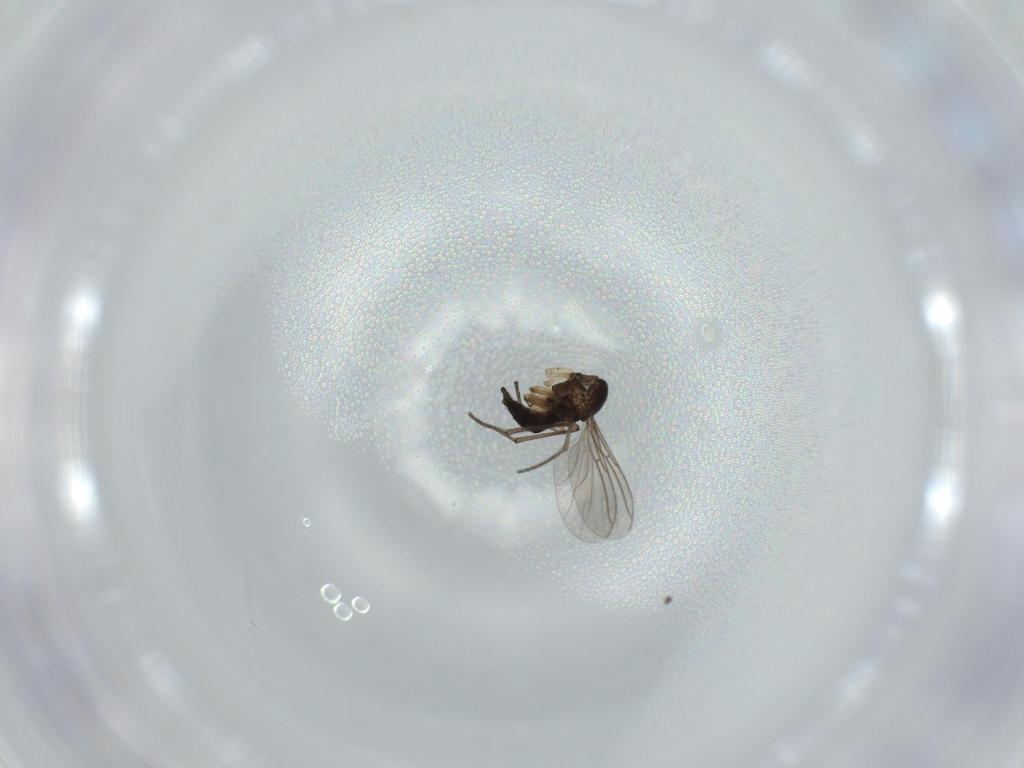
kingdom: Animalia
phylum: Arthropoda
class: Insecta
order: Diptera
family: Sciaridae
